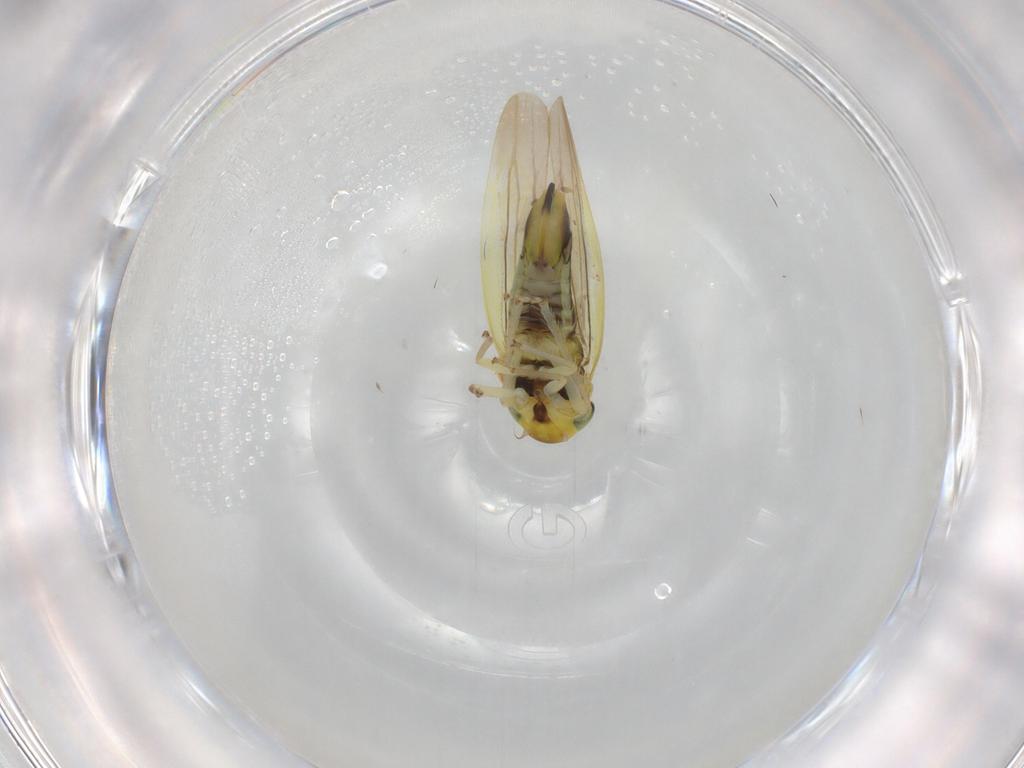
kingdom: Animalia
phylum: Arthropoda
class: Insecta
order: Hemiptera
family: Cicadellidae
